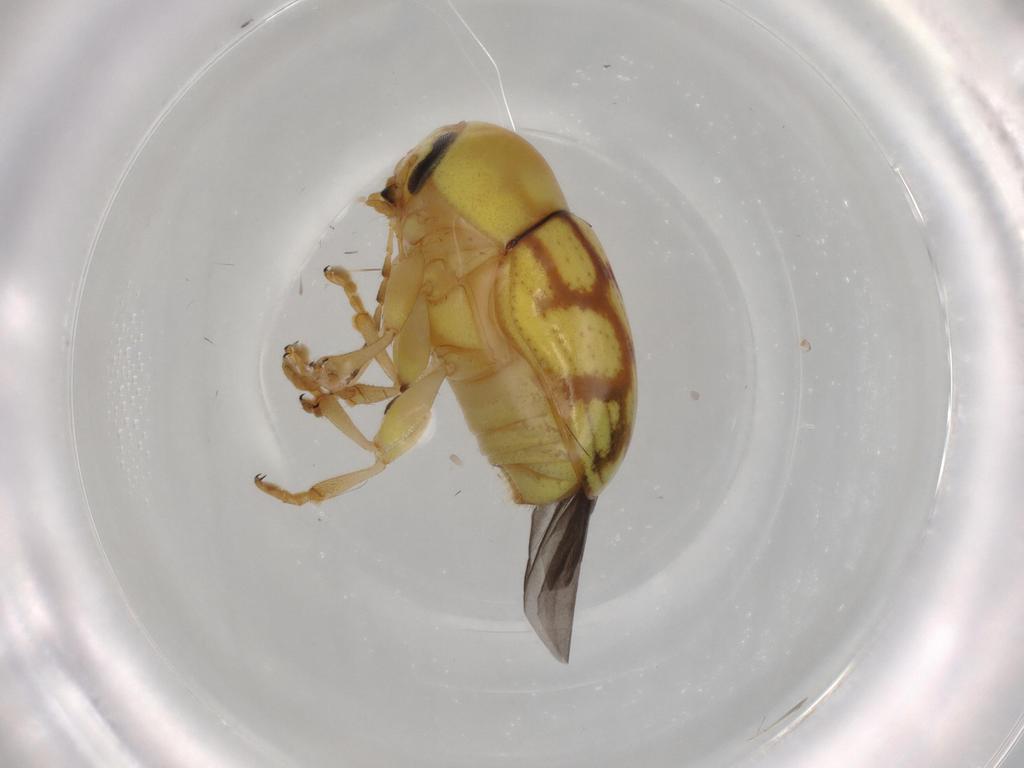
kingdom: Animalia
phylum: Arthropoda
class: Insecta
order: Coleoptera
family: Chrysomelidae
